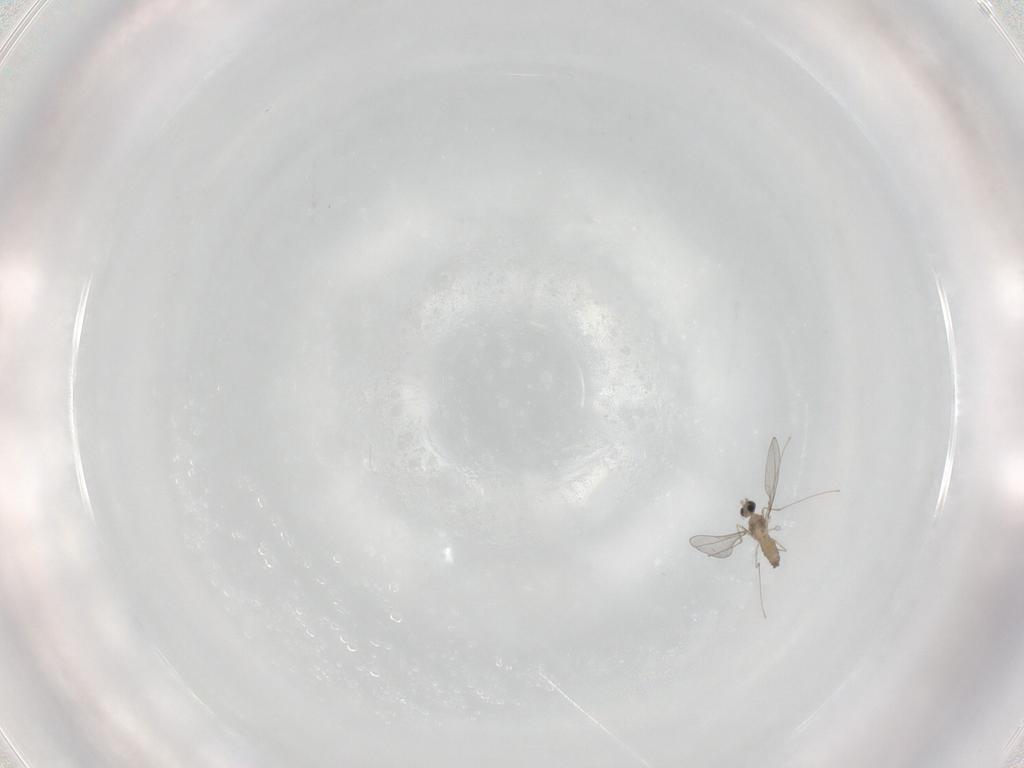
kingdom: Animalia
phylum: Arthropoda
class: Insecta
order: Diptera
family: Sciaridae
